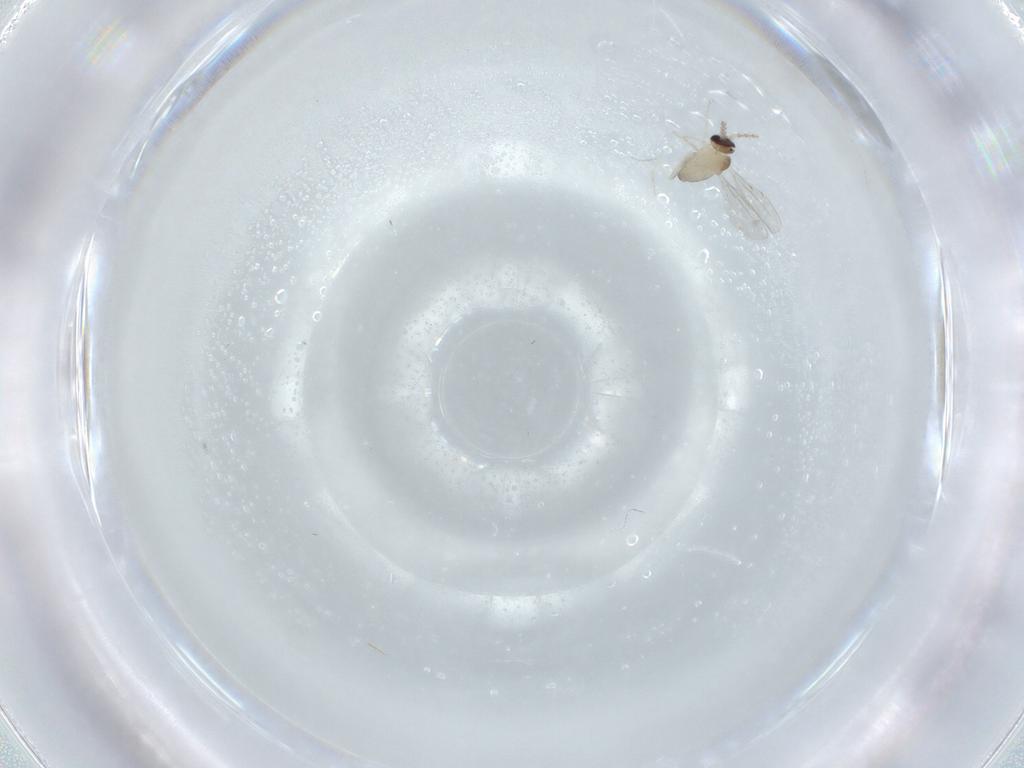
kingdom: Animalia
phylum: Arthropoda
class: Insecta
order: Diptera
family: Cecidomyiidae
